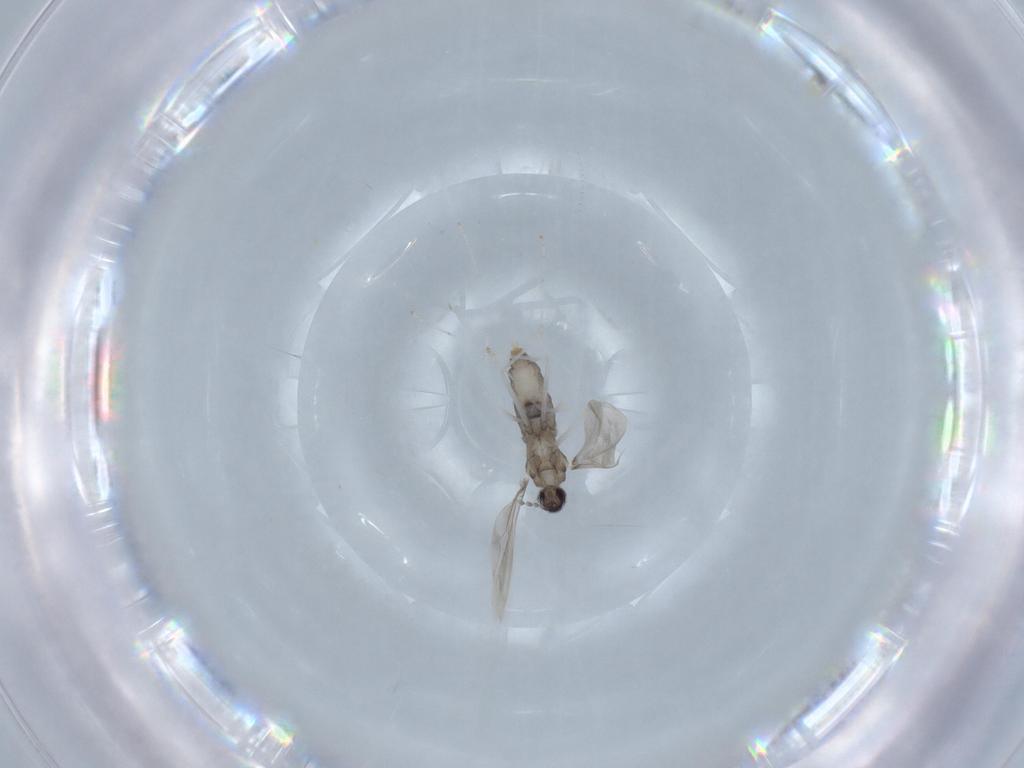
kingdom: Animalia
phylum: Arthropoda
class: Insecta
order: Diptera
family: Cecidomyiidae
